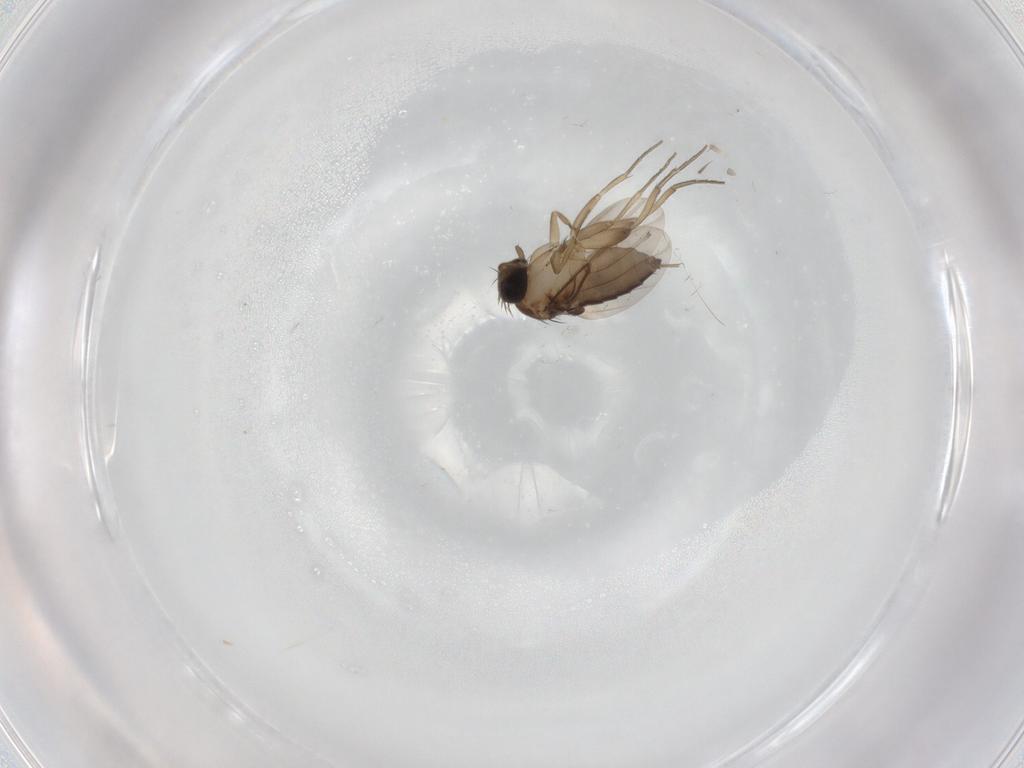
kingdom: Animalia
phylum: Arthropoda
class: Insecta
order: Diptera
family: Phoridae
